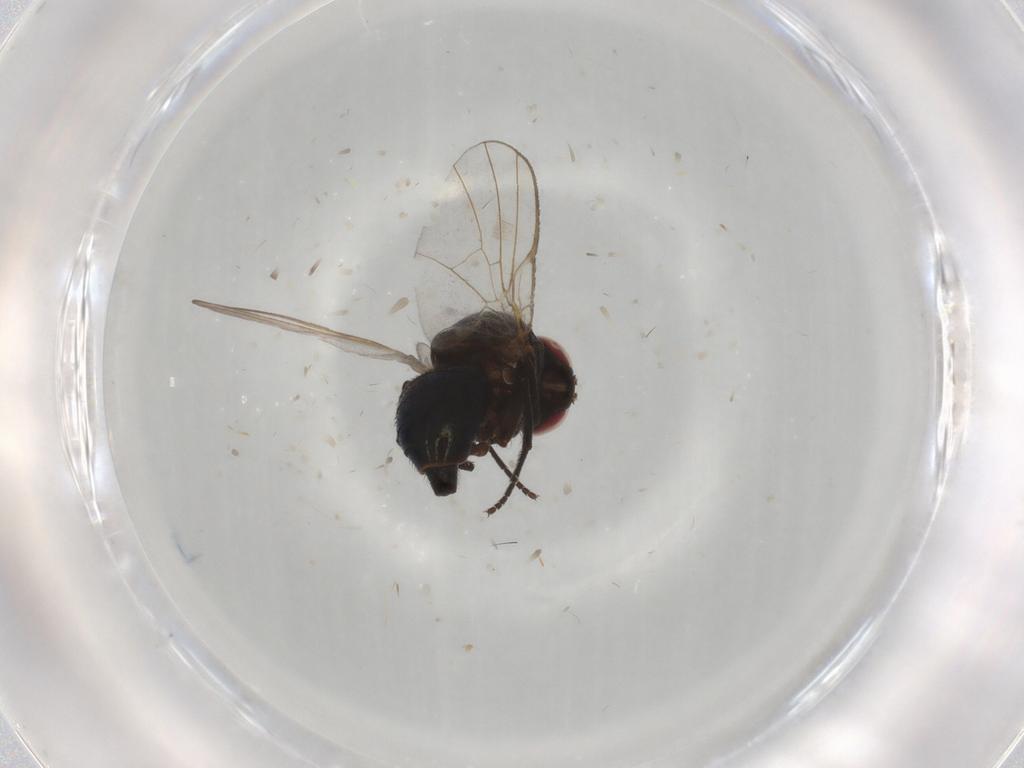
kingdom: Animalia
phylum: Arthropoda
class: Insecta
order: Diptera
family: Agromyzidae
